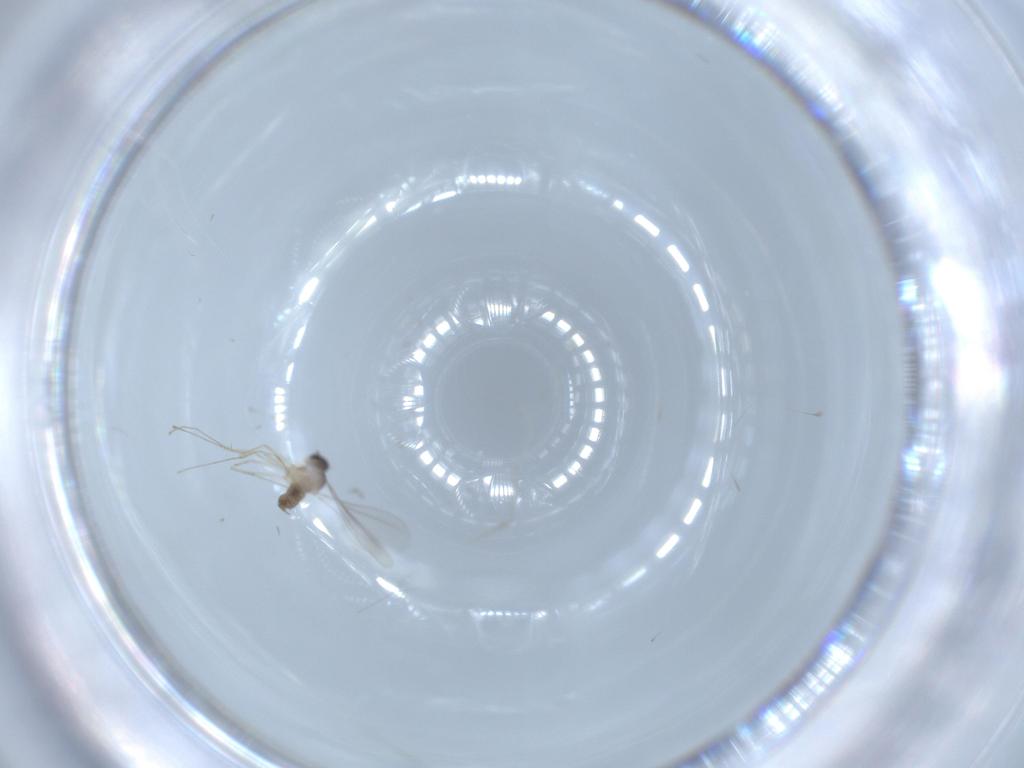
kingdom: Animalia
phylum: Arthropoda
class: Insecta
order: Diptera
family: Cecidomyiidae
